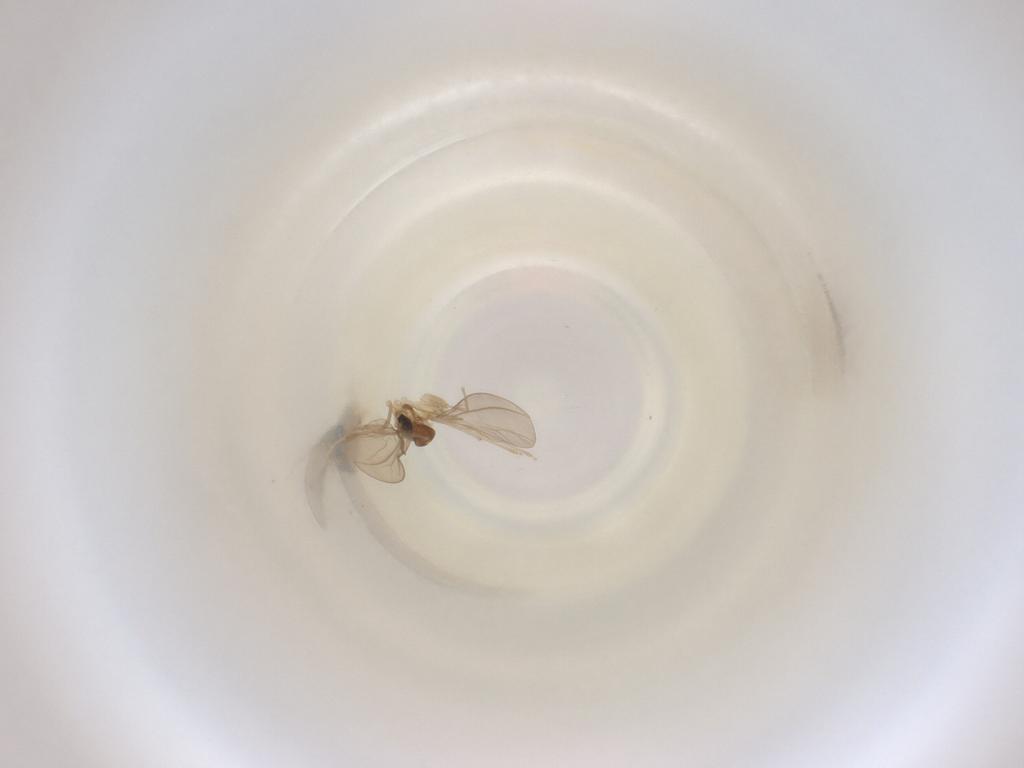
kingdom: Animalia
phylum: Arthropoda
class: Insecta
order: Diptera
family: Cecidomyiidae
